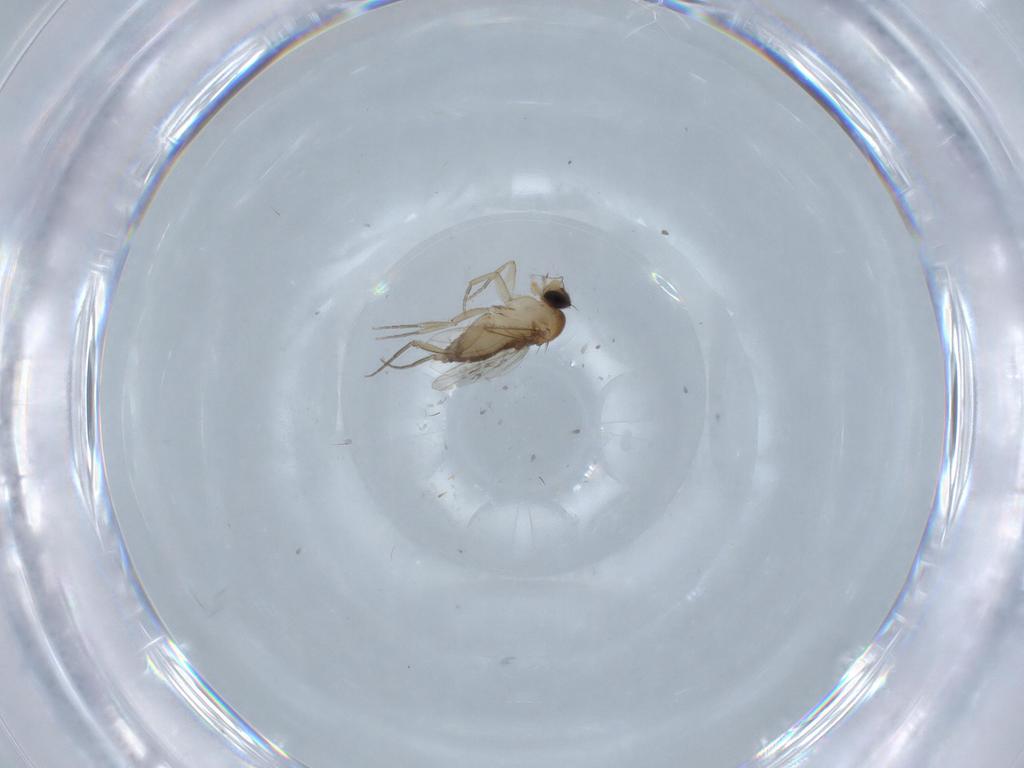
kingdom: Animalia
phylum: Arthropoda
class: Insecta
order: Diptera
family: Phoridae
